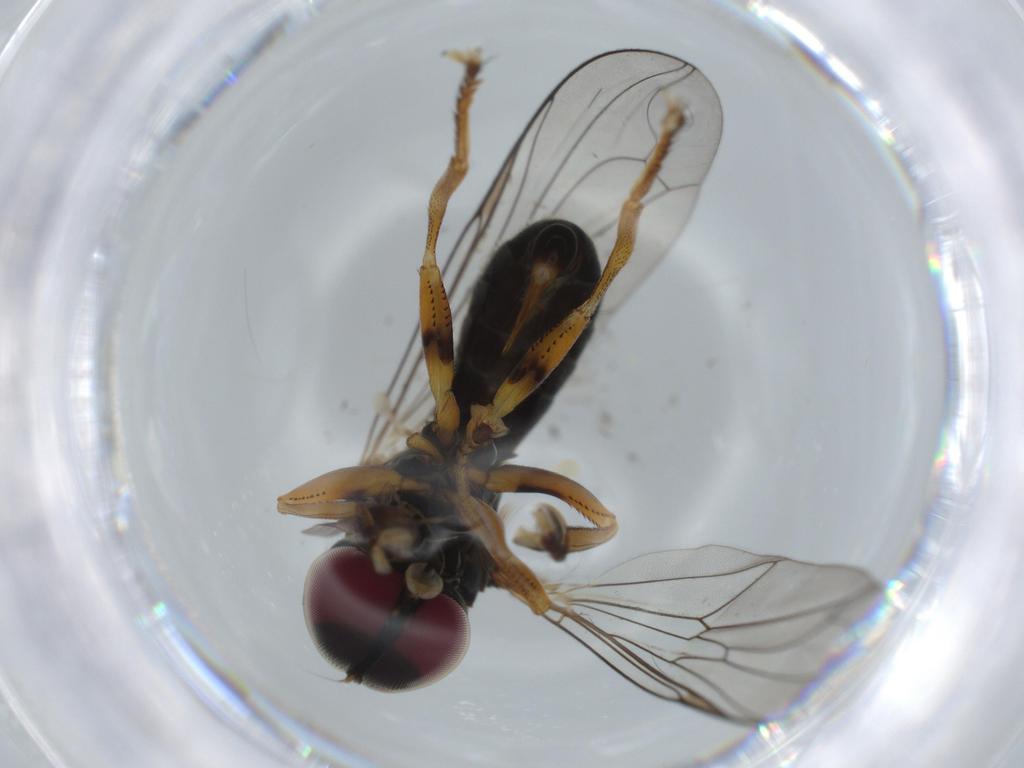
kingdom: Animalia
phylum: Arthropoda
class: Insecta
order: Diptera
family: Pipunculidae
